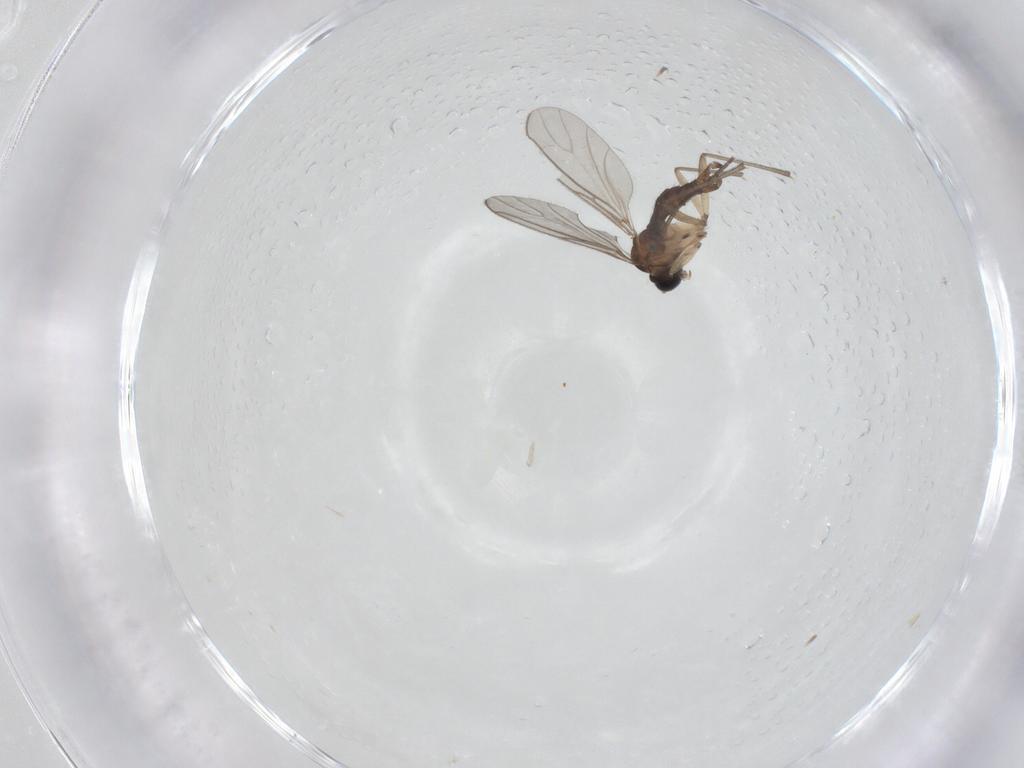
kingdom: Animalia
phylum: Arthropoda
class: Insecta
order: Diptera
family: Sciaridae
